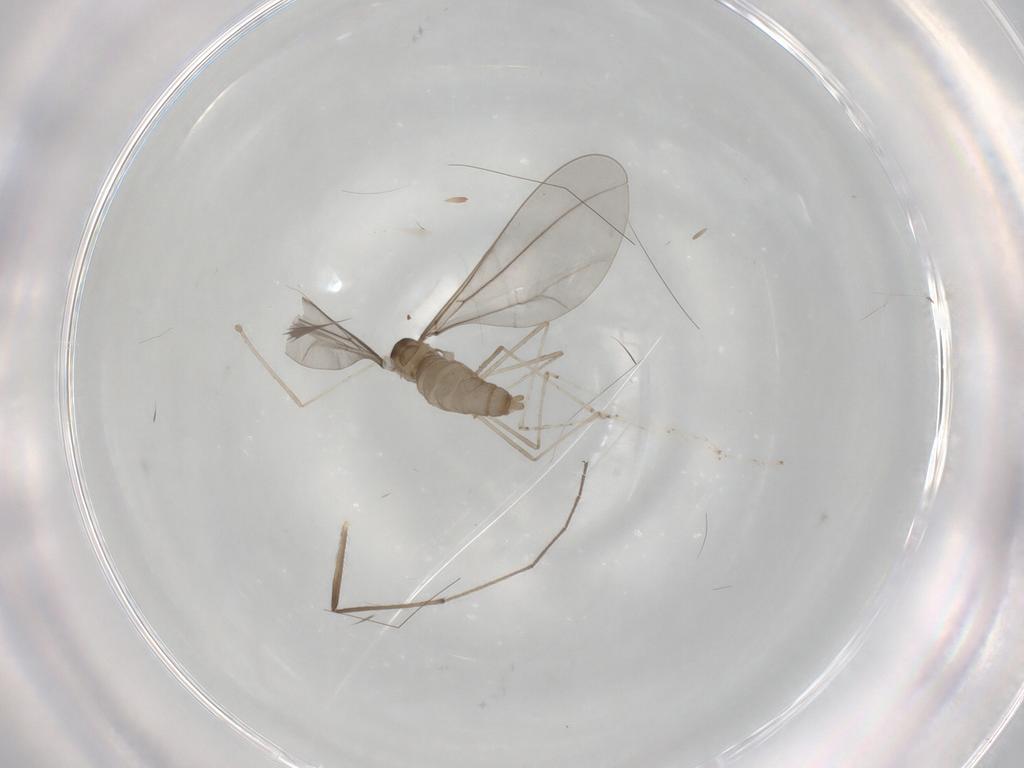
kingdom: Animalia
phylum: Arthropoda
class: Insecta
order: Diptera
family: Cecidomyiidae
